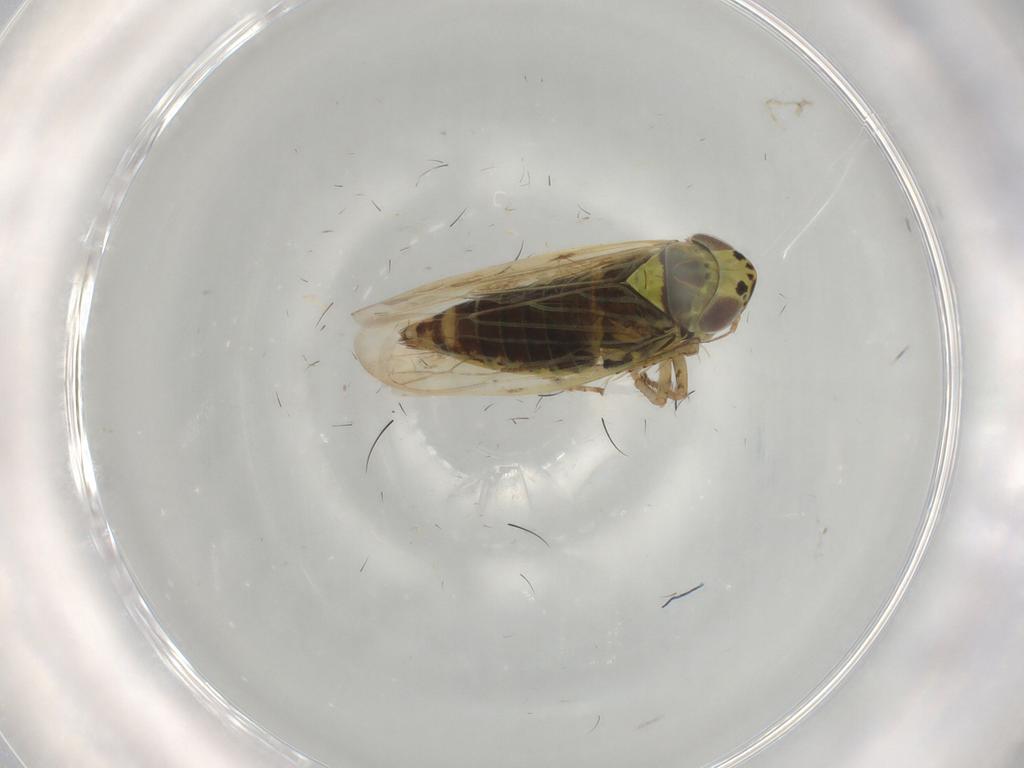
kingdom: Animalia
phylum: Arthropoda
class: Insecta
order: Hemiptera
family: Cicadellidae
